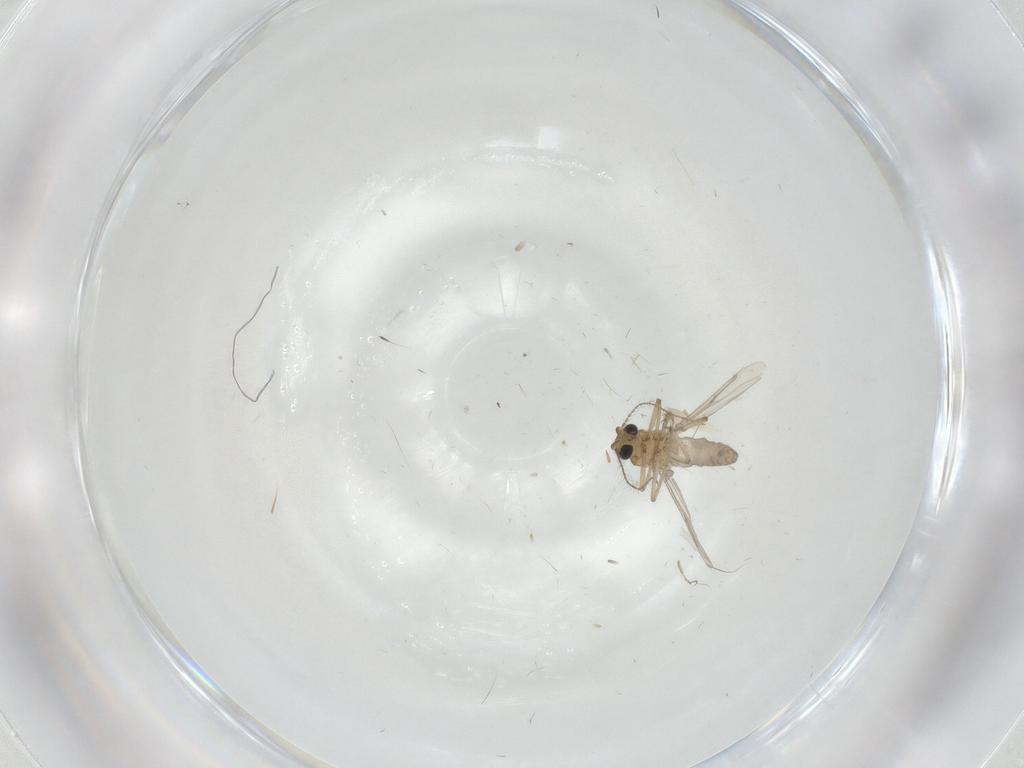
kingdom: Animalia
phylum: Arthropoda
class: Insecta
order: Diptera
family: Ceratopogonidae
